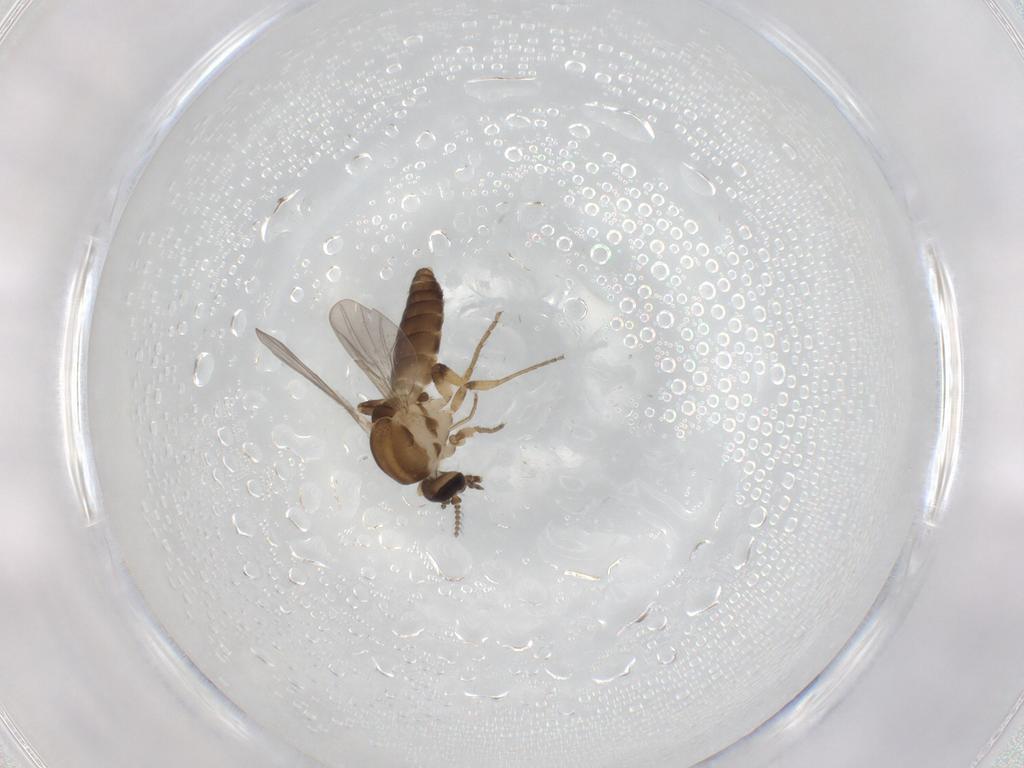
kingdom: Animalia
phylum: Arthropoda
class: Insecta
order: Diptera
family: Ceratopogonidae
